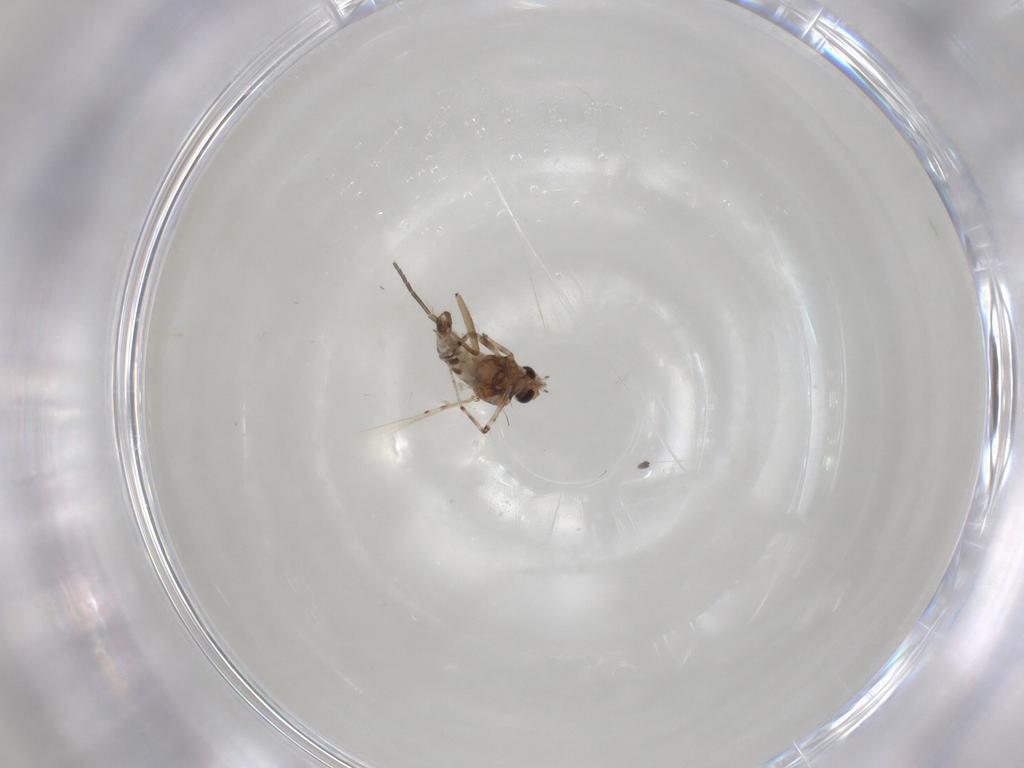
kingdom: Animalia
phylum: Arthropoda
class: Insecta
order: Diptera
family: Ceratopogonidae
